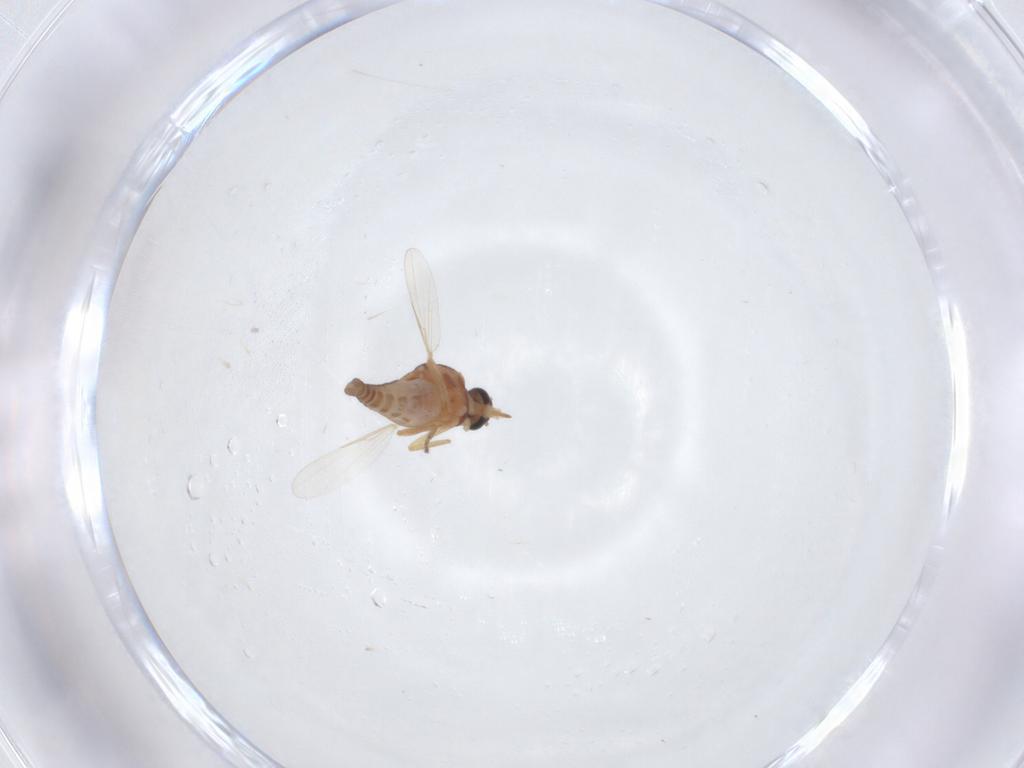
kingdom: Animalia
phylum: Arthropoda
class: Insecta
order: Diptera
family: Ceratopogonidae
